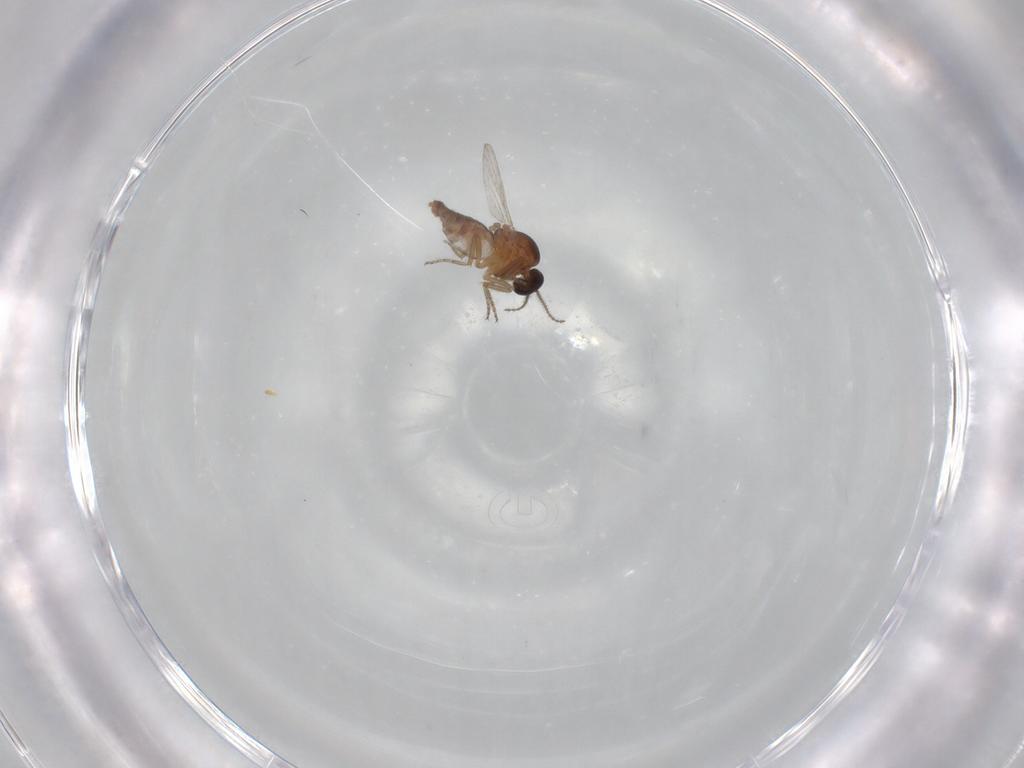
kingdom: Animalia
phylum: Arthropoda
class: Insecta
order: Diptera
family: Ceratopogonidae
